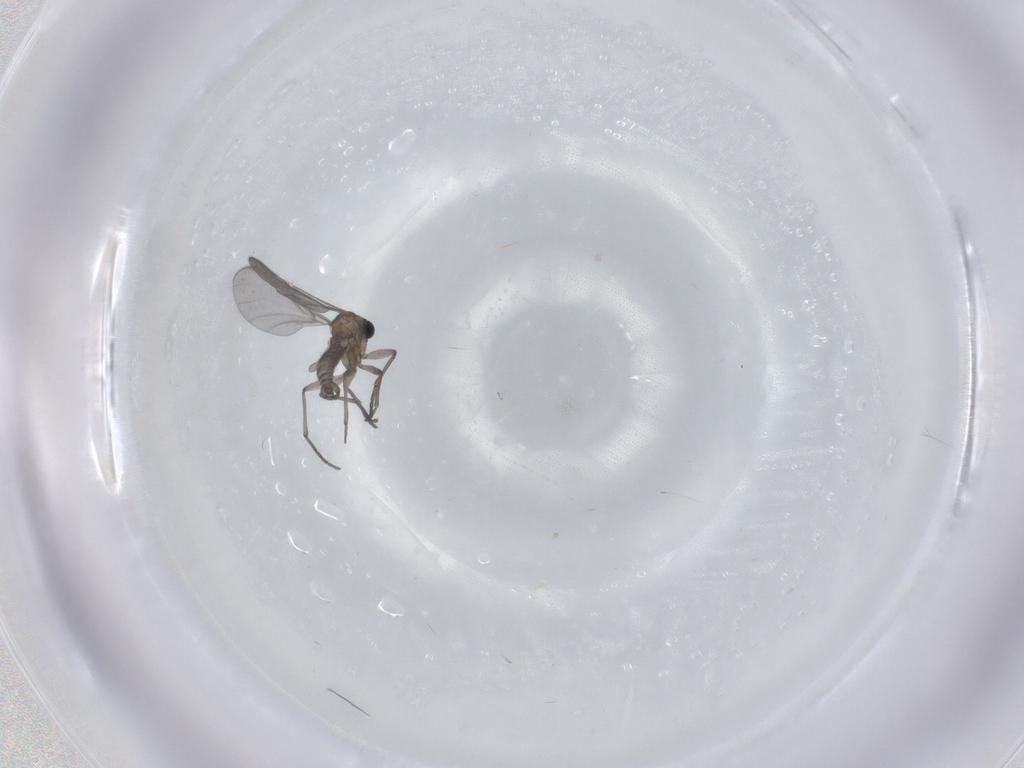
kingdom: Animalia
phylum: Arthropoda
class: Insecta
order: Diptera
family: Sciaridae
